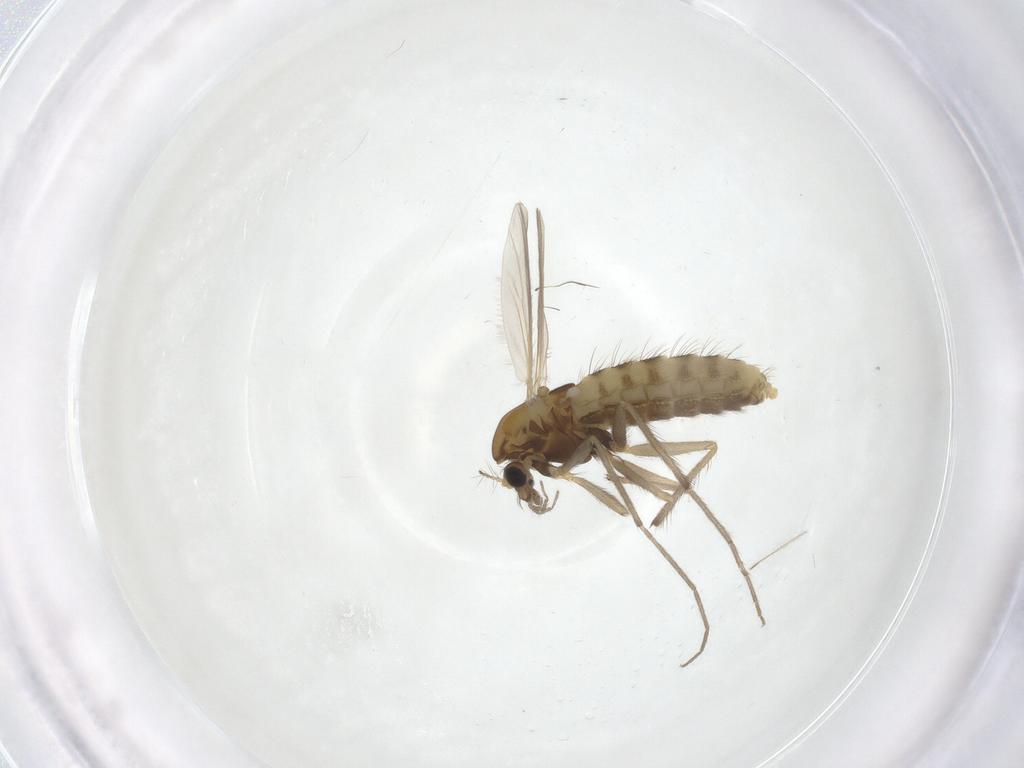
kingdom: Animalia
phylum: Arthropoda
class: Insecta
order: Diptera
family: Chironomidae
